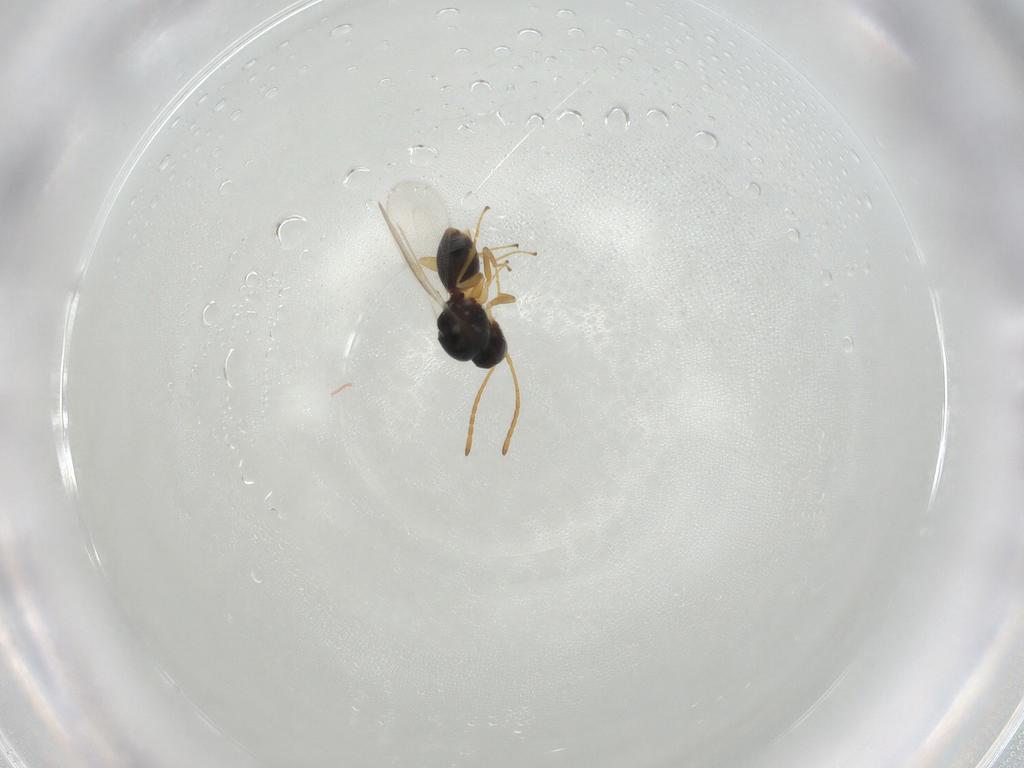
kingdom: Animalia
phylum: Arthropoda
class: Insecta
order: Hymenoptera
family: Figitidae
